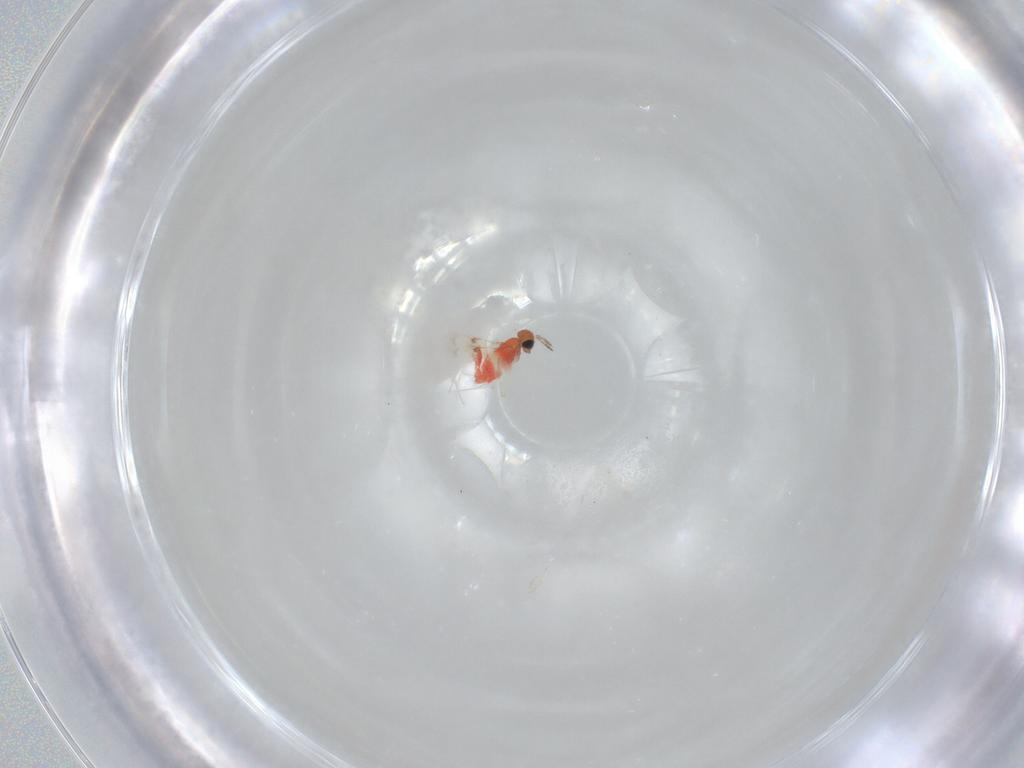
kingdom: Animalia
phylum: Arthropoda
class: Insecta
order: Hymenoptera
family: Trichogrammatidae
